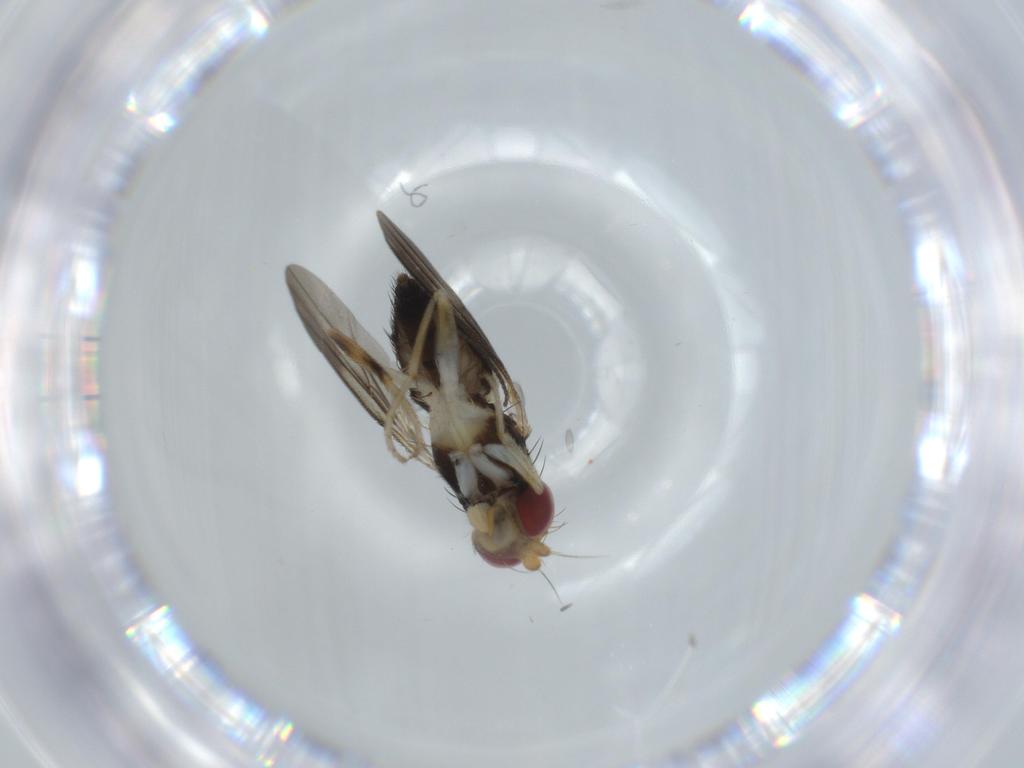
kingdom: Animalia
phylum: Arthropoda
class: Insecta
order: Diptera
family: Clusiidae
